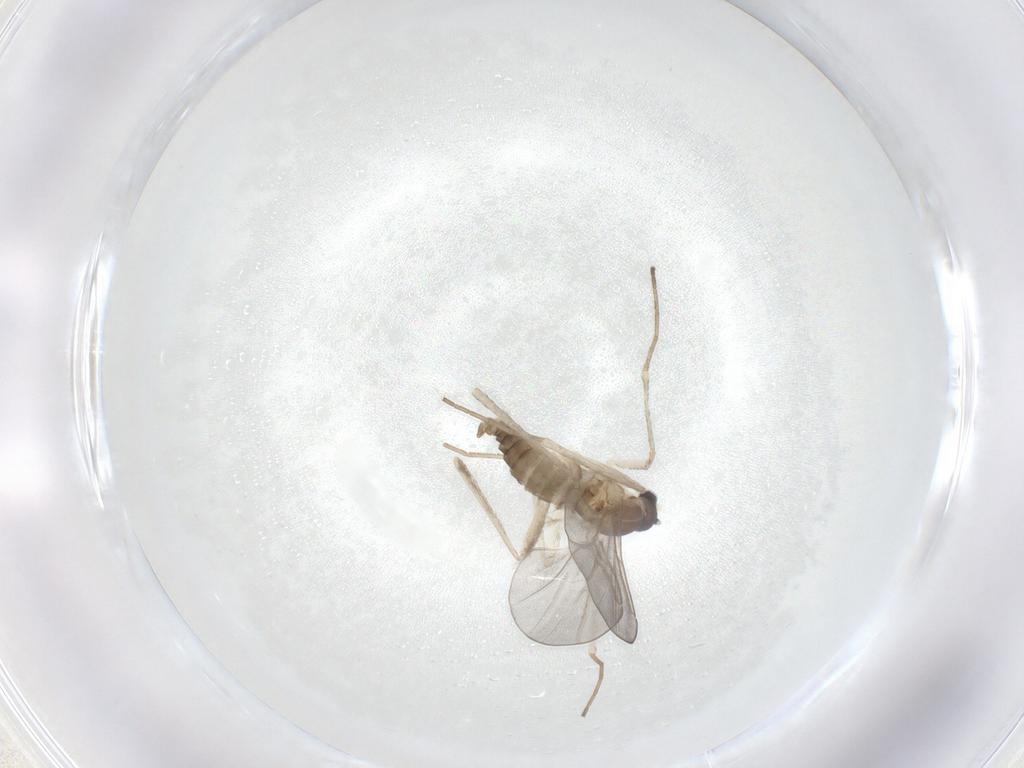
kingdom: Animalia
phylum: Arthropoda
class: Insecta
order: Diptera
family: Cecidomyiidae
